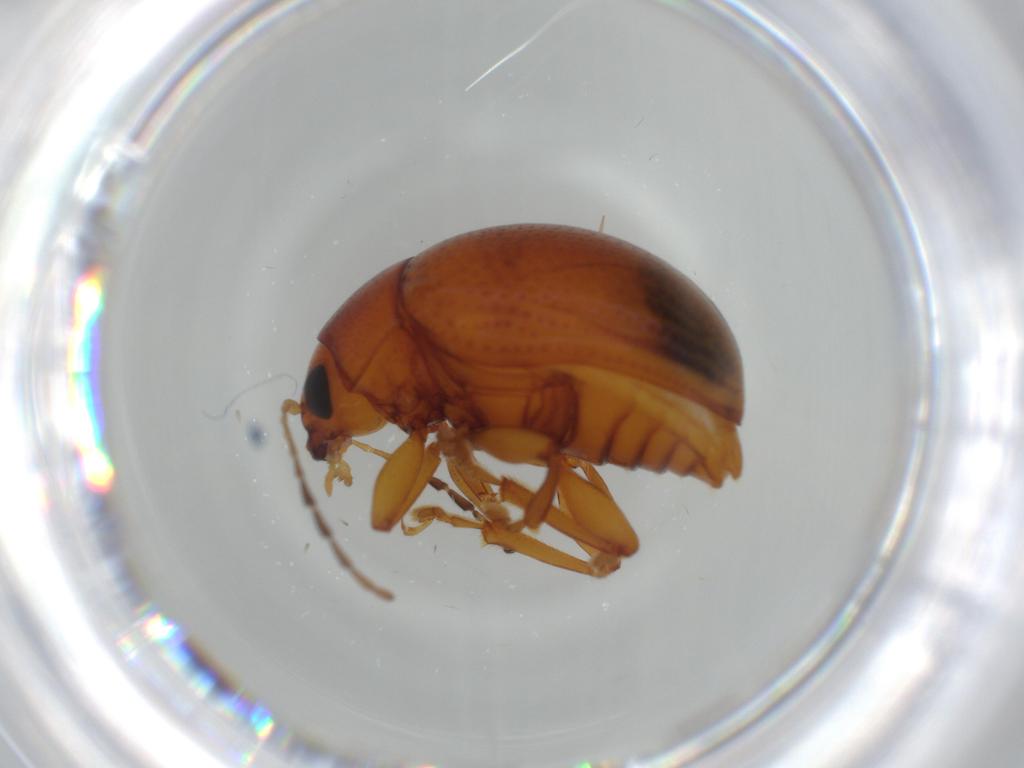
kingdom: Animalia
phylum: Arthropoda
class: Insecta
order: Coleoptera
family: Chrysomelidae
